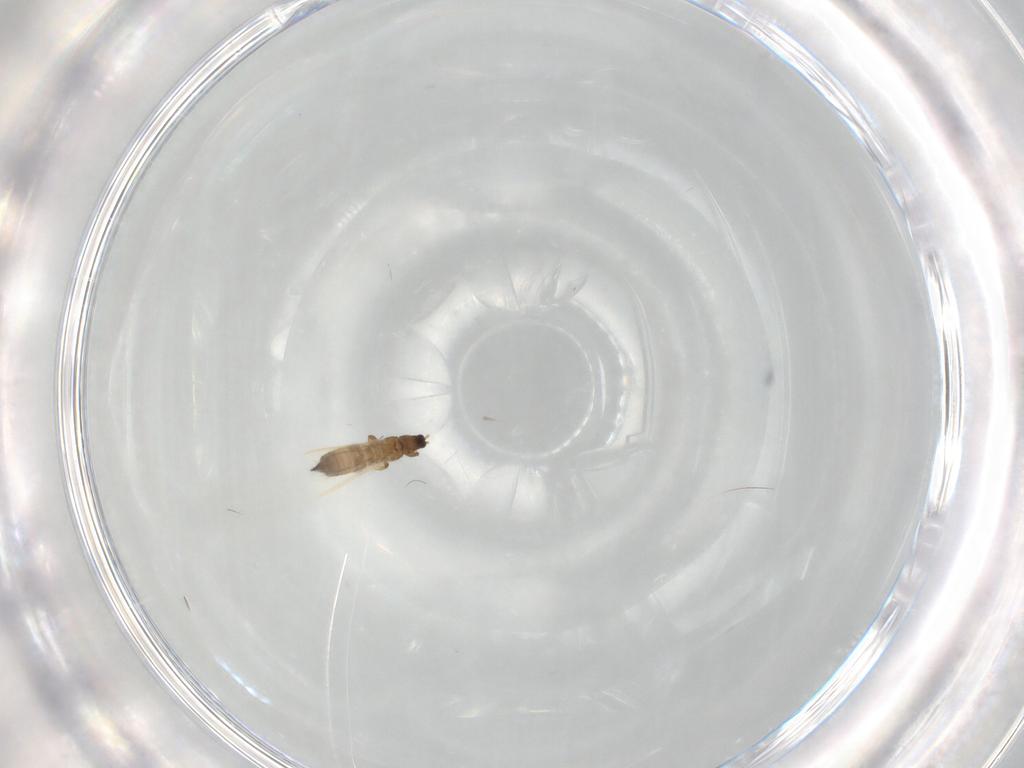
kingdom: Animalia
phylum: Arthropoda
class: Insecta
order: Thysanoptera
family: Thripidae
